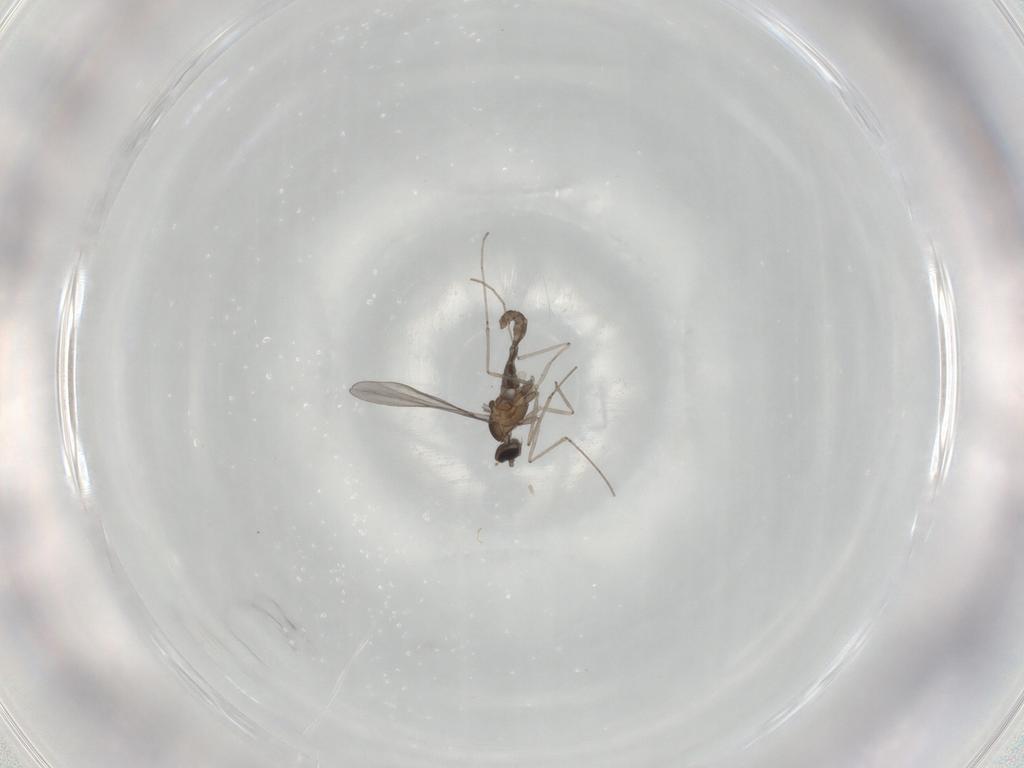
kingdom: Animalia
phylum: Arthropoda
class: Insecta
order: Diptera
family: Cecidomyiidae
